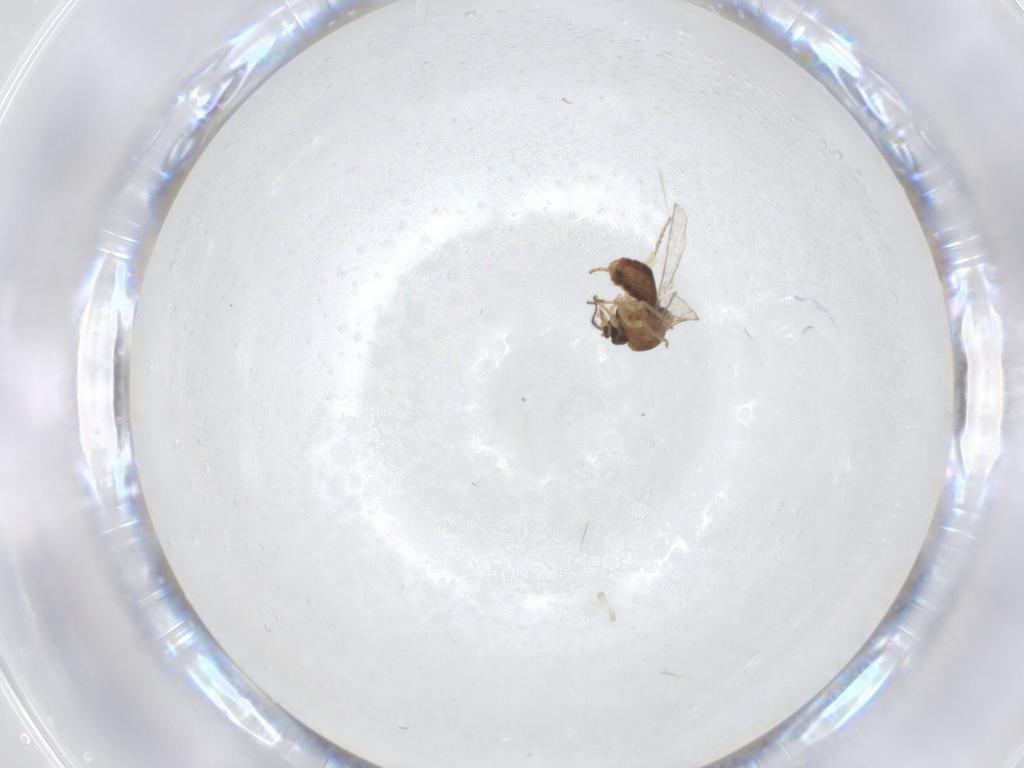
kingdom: Animalia
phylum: Arthropoda
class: Insecta
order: Diptera
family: Ceratopogonidae
